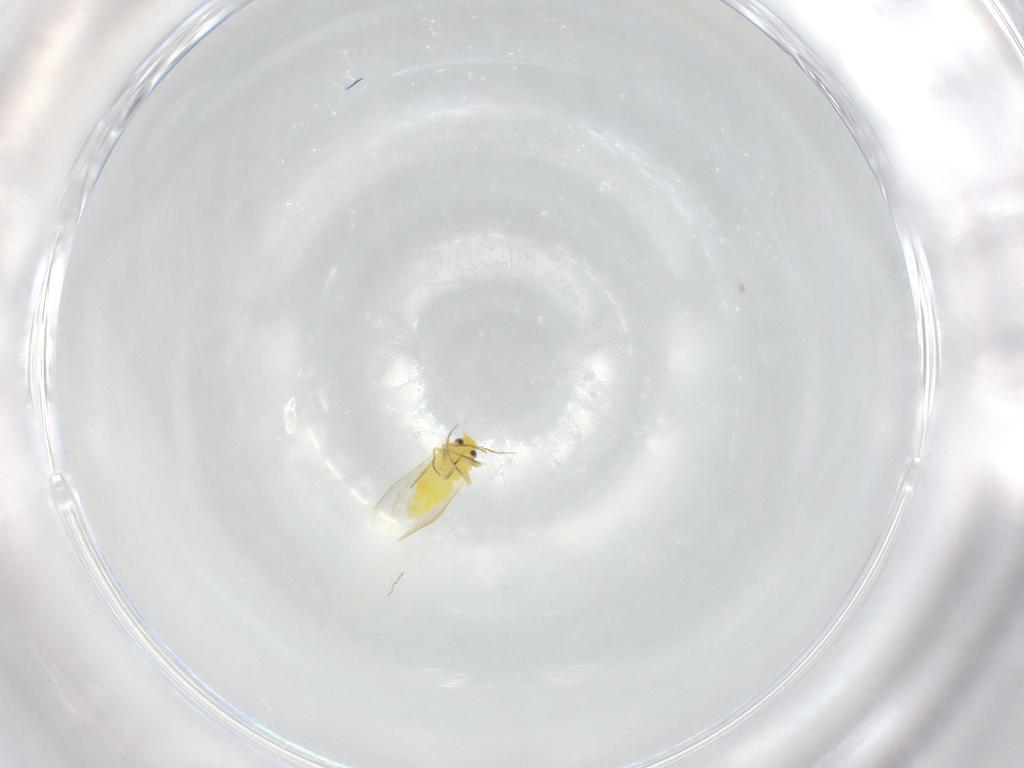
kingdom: Animalia
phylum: Arthropoda
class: Insecta
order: Hemiptera
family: Aleyrodidae
